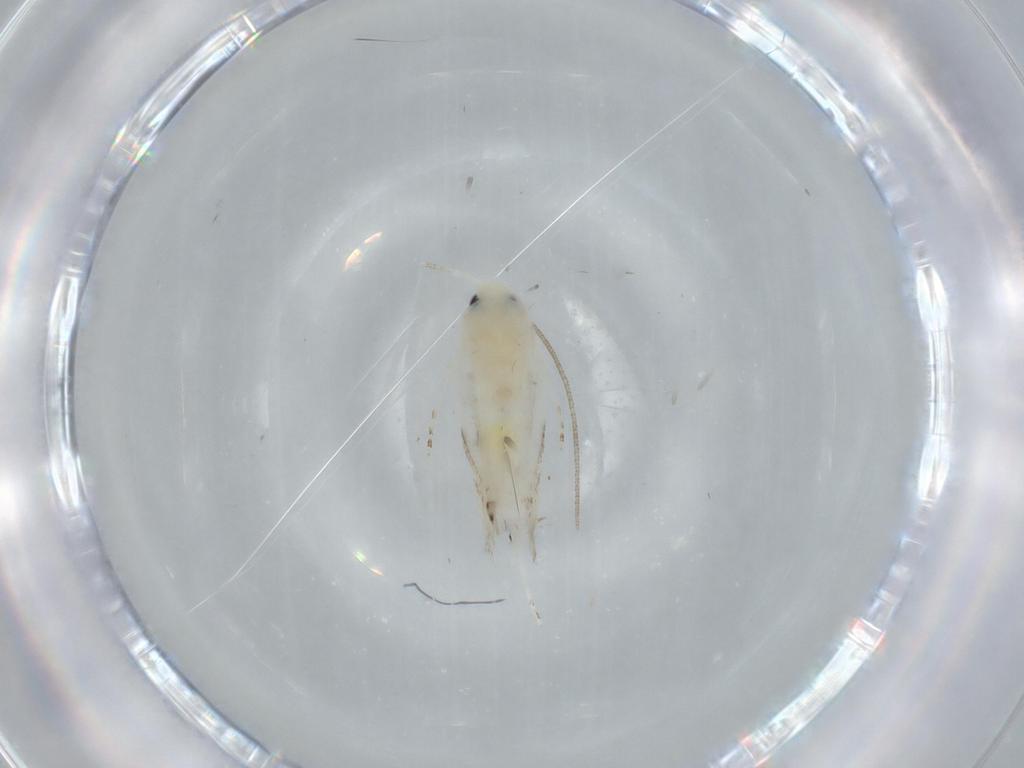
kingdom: Animalia
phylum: Arthropoda
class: Insecta
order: Lepidoptera
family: Lyonetiidae
